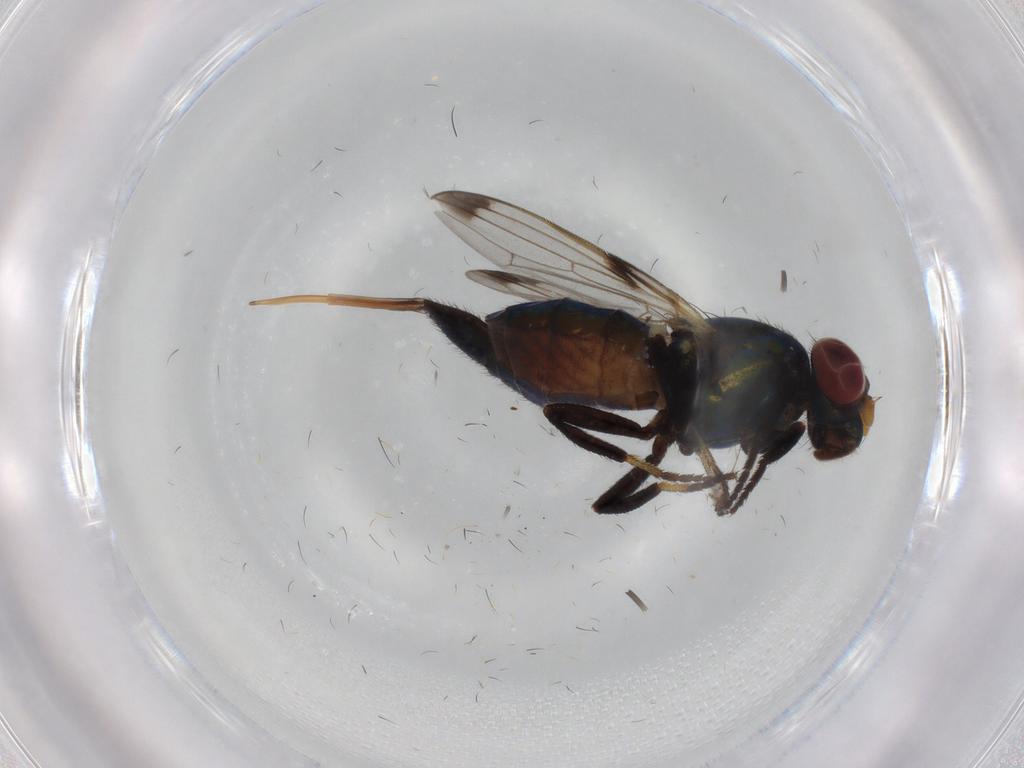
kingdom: Animalia
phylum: Arthropoda
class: Insecta
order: Diptera
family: Ulidiidae
